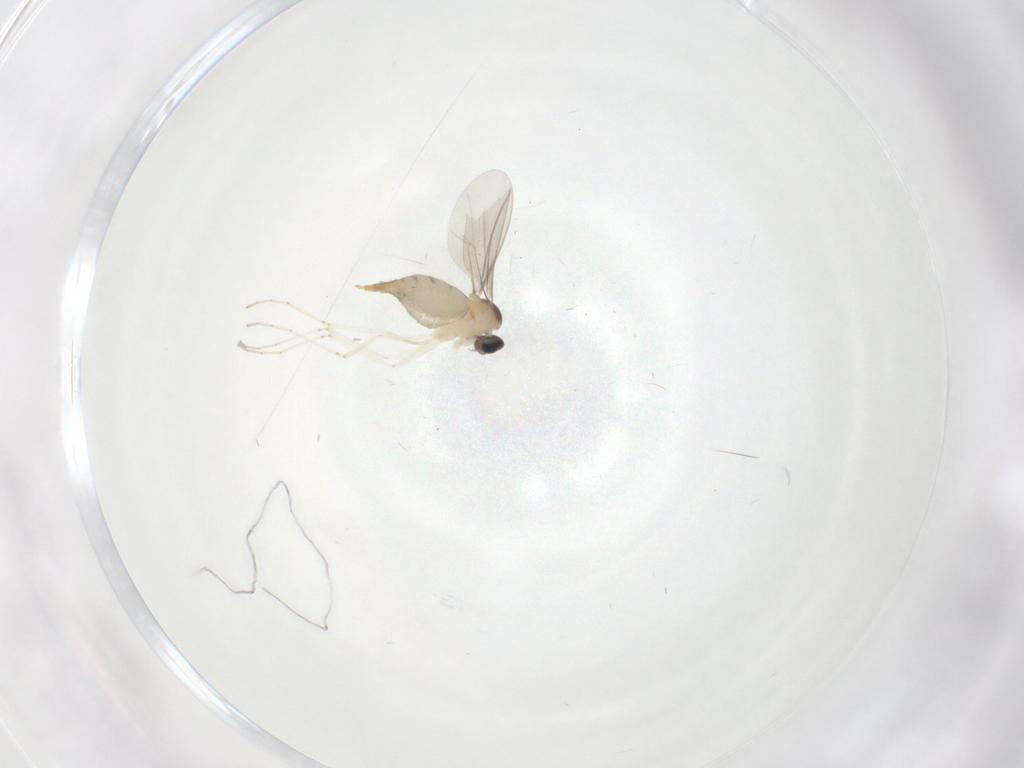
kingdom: Animalia
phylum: Arthropoda
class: Insecta
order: Diptera
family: Cecidomyiidae
